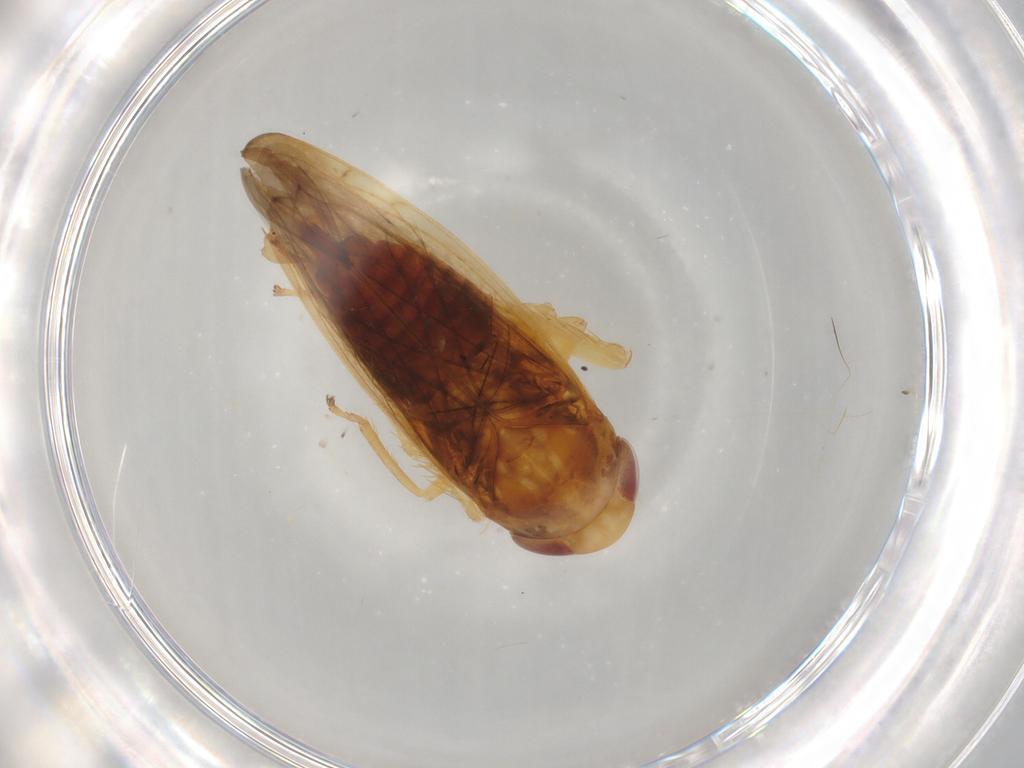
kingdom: Animalia
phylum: Arthropoda
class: Insecta
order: Hemiptera
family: Cicadellidae
